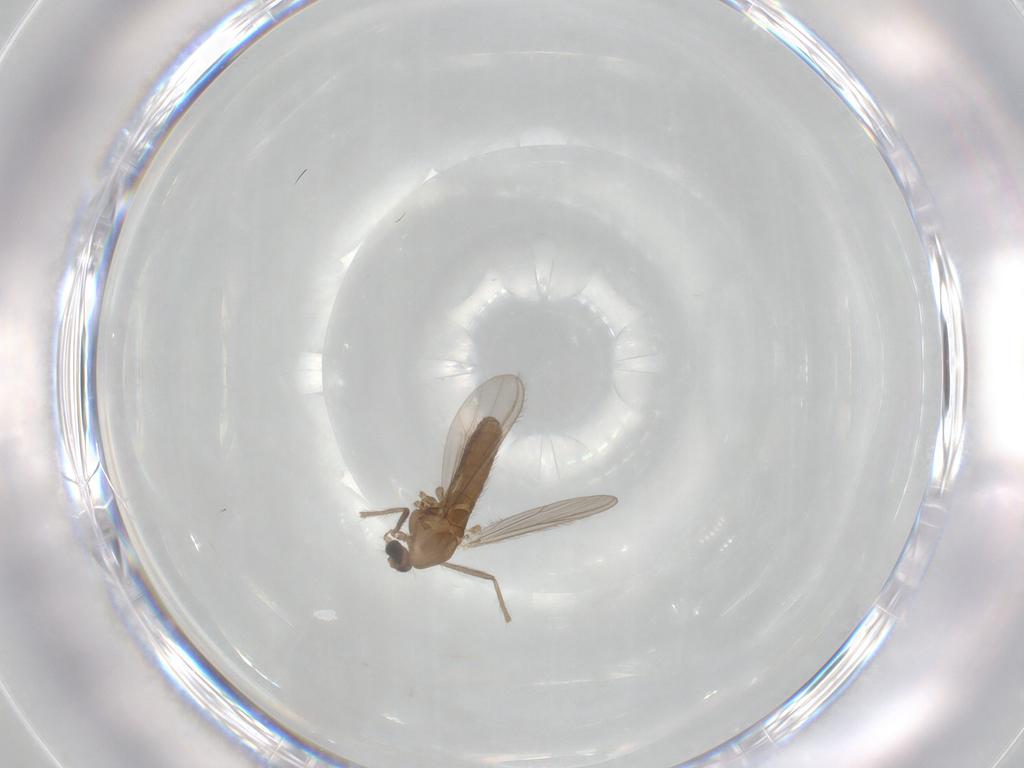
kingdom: Animalia
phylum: Arthropoda
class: Insecta
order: Diptera
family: Chironomidae
